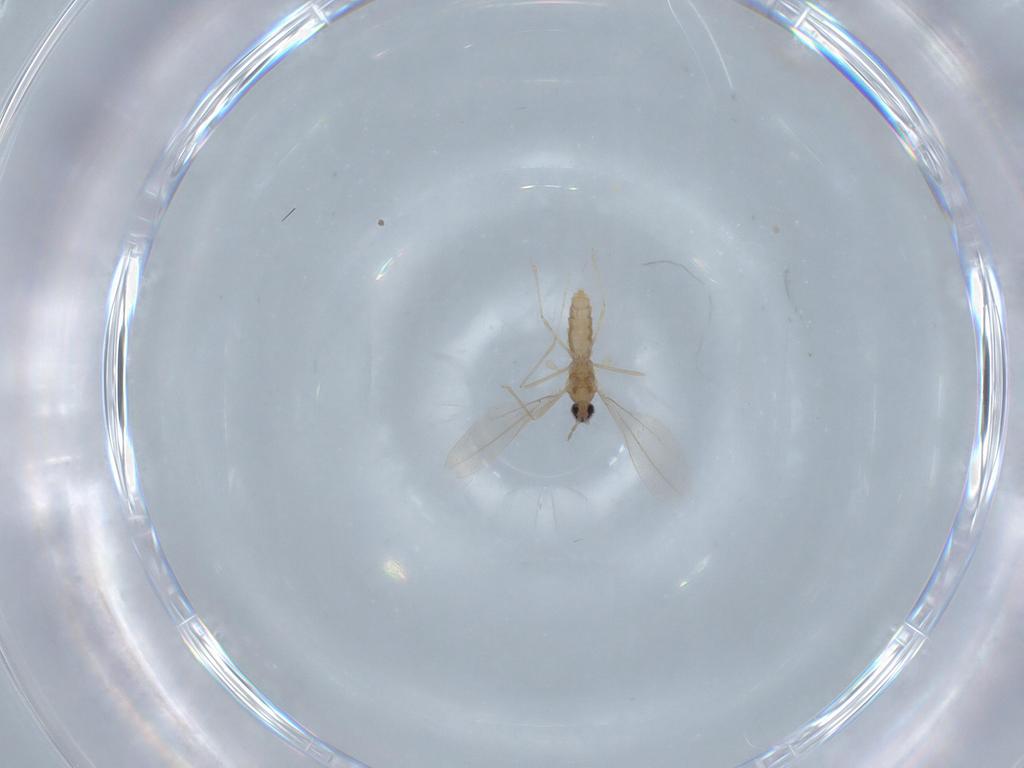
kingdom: Animalia
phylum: Arthropoda
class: Insecta
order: Diptera
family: Cecidomyiidae
